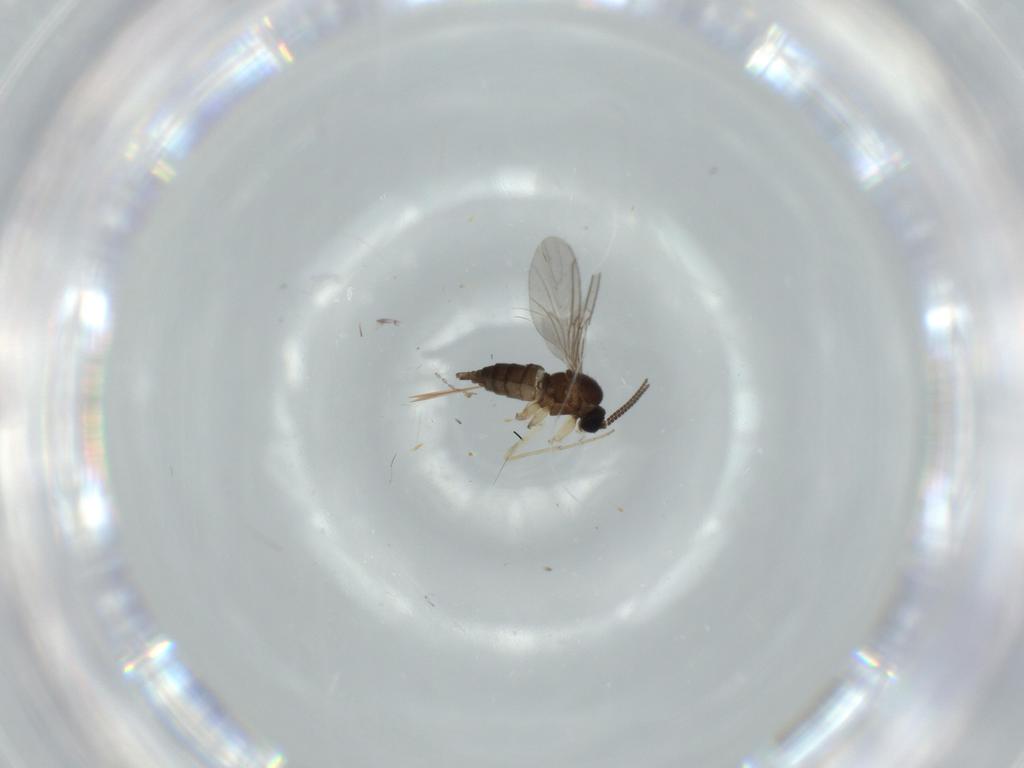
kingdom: Animalia
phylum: Arthropoda
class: Insecta
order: Diptera
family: Sciaridae
